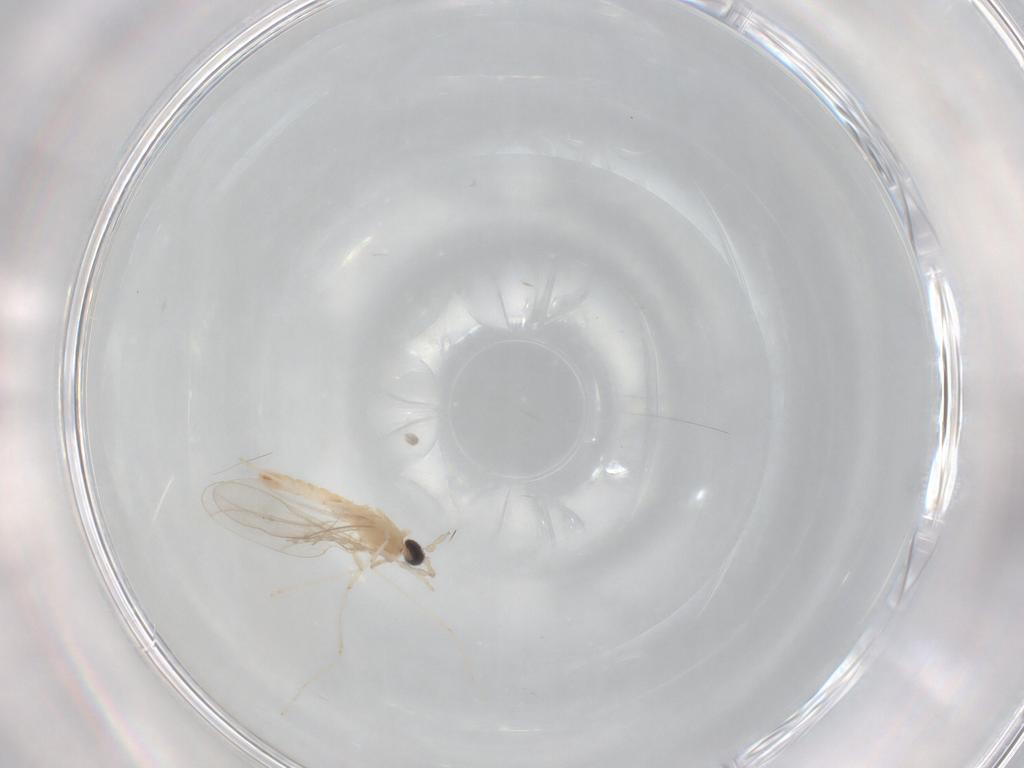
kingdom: Animalia
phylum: Arthropoda
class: Insecta
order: Diptera
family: Cecidomyiidae
